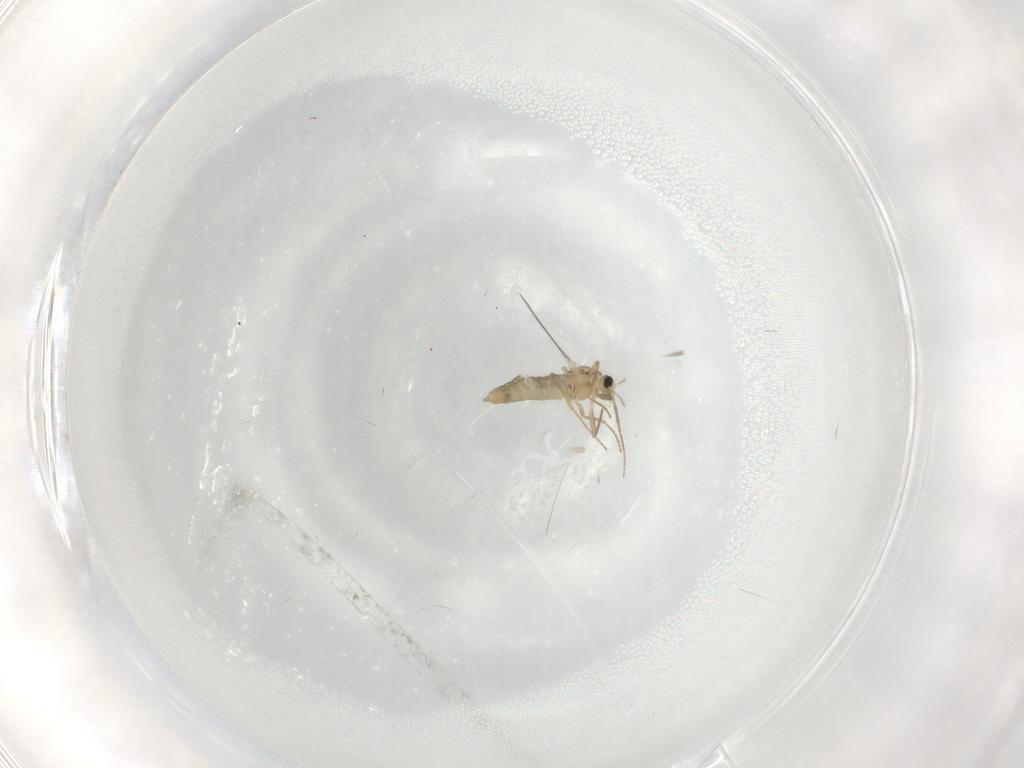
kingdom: Animalia
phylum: Arthropoda
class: Insecta
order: Diptera
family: Chironomidae
